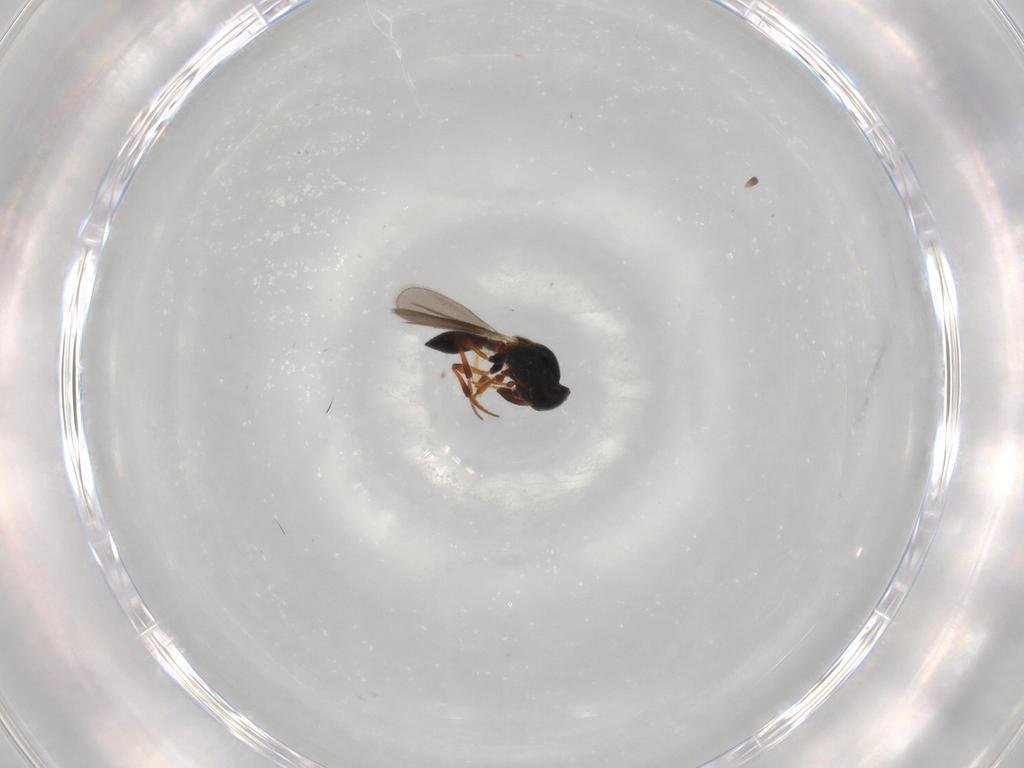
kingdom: Animalia
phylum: Arthropoda
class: Insecta
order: Hymenoptera
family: Platygastridae
